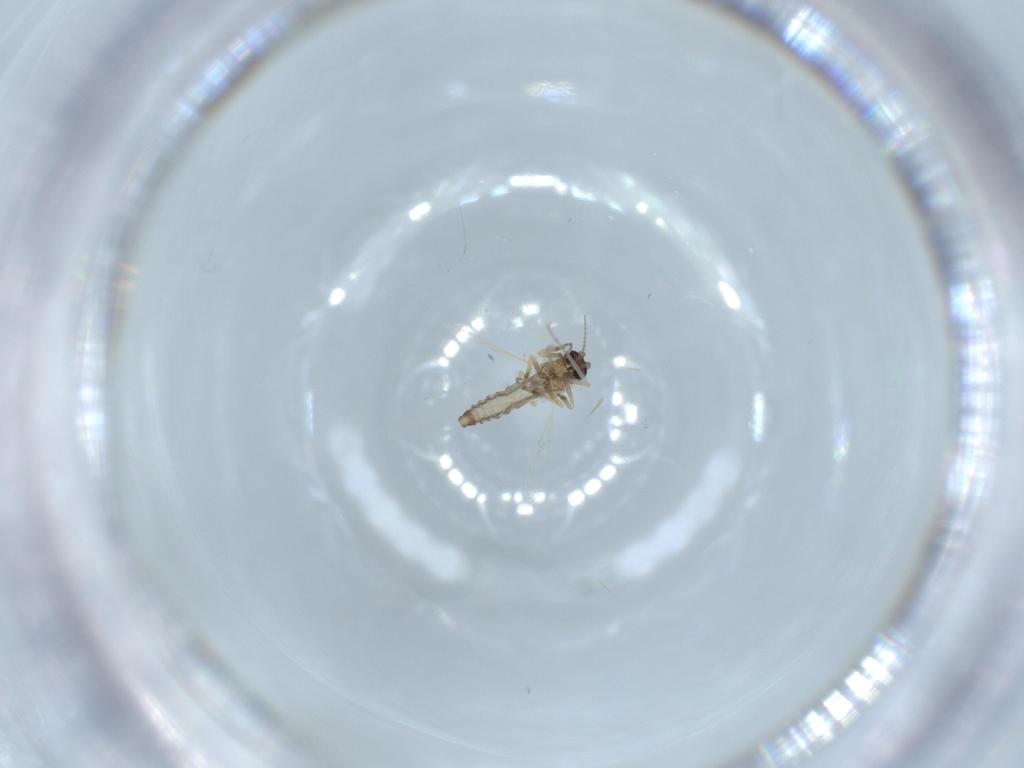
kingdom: Animalia
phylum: Arthropoda
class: Insecta
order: Diptera
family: Ceratopogonidae
